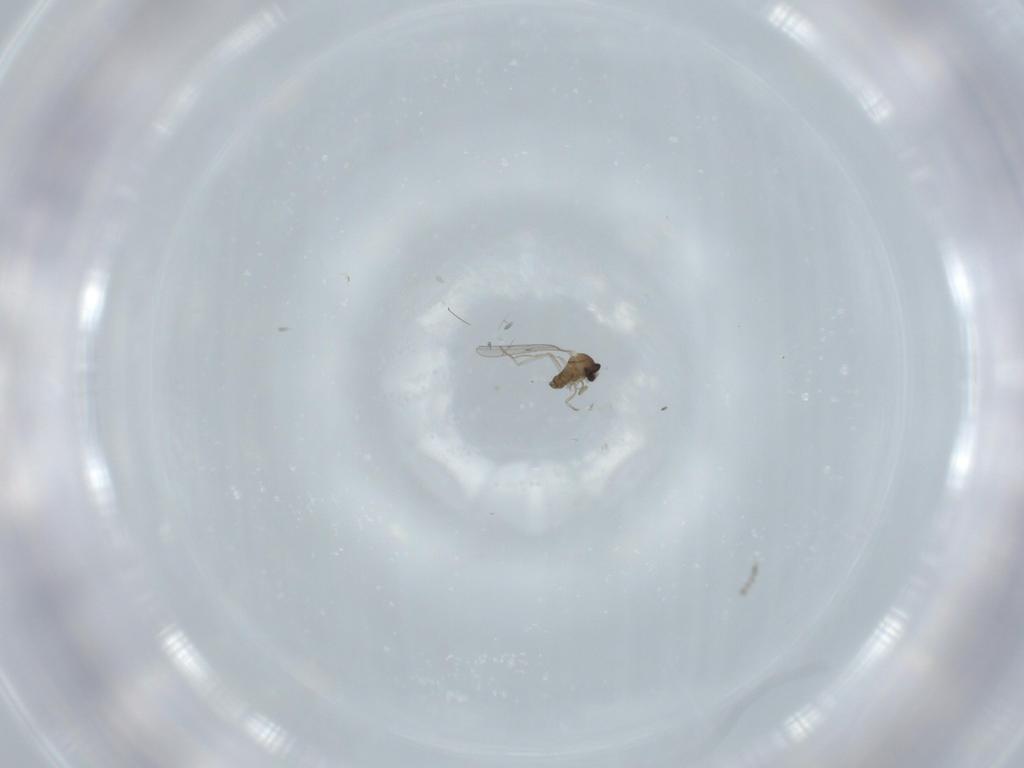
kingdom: Animalia
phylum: Arthropoda
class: Insecta
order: Diptera
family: Cecidomyiidae
